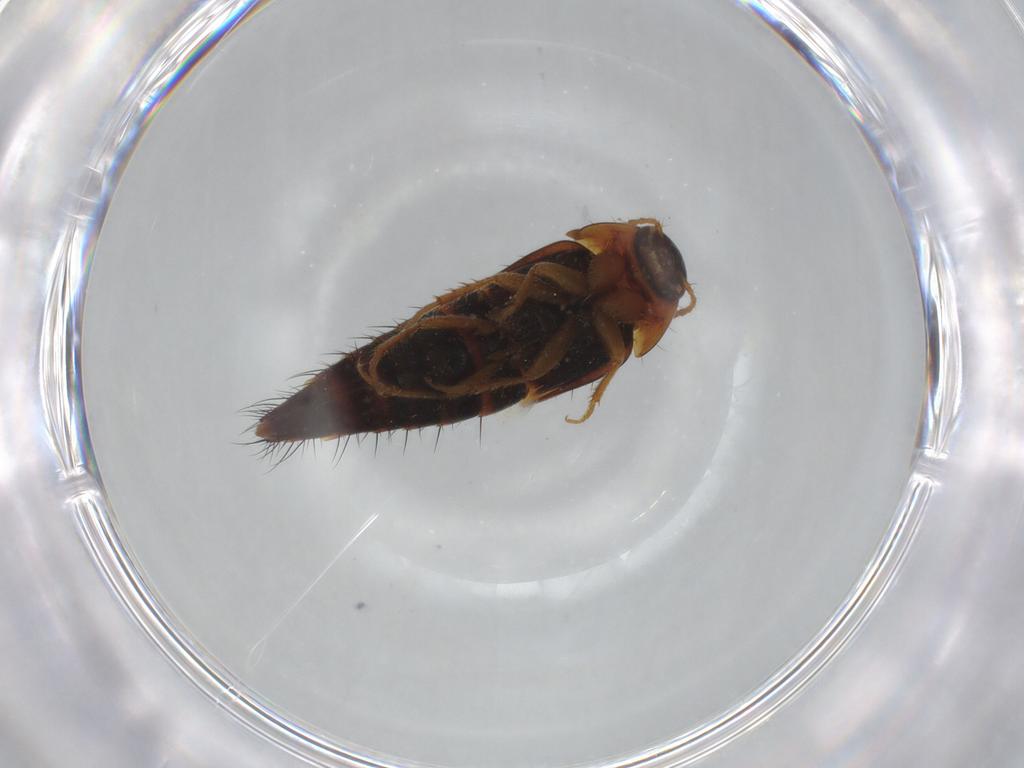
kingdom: Animalia
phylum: Arthropoda
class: Insecta
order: Coleoptera
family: Staphylinidae
